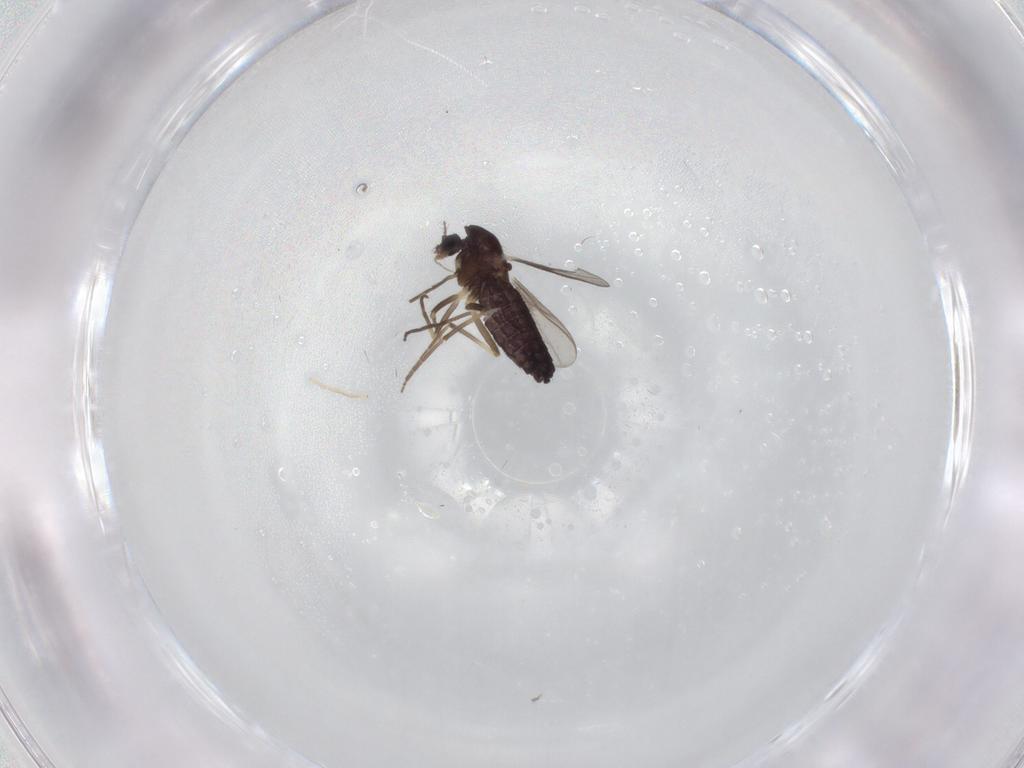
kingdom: Animalia
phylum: Arthropoda
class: Insecta
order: Diptera
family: Chironomidae
